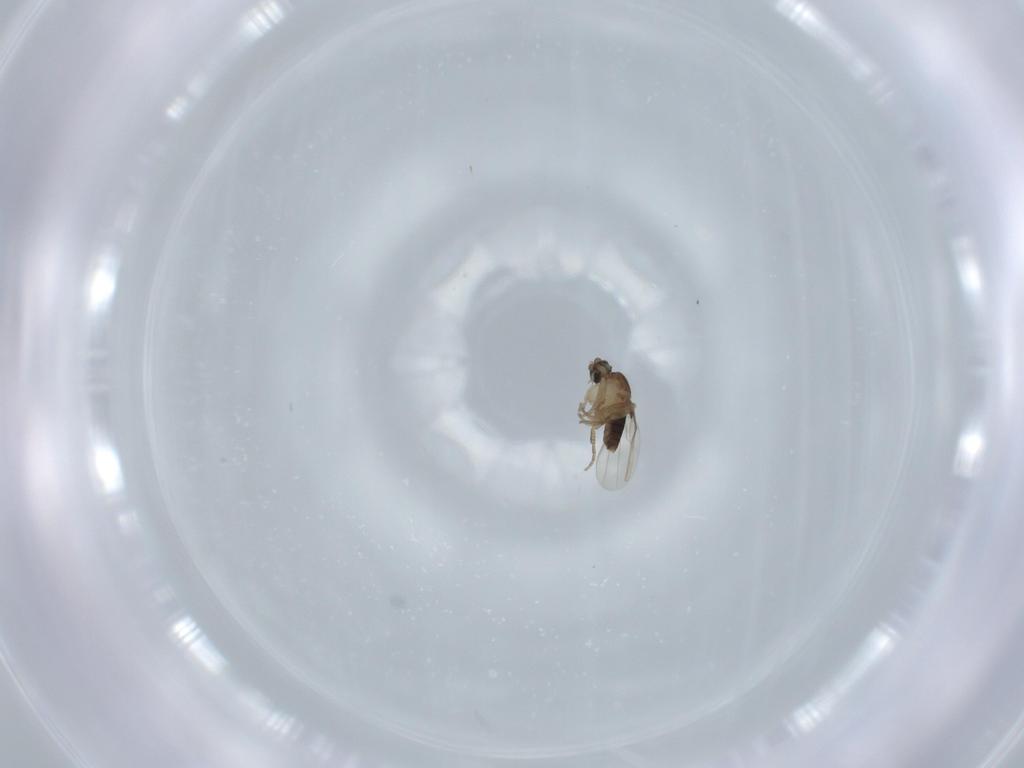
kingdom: Animalia
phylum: Arthropoda
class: Insecta
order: Diptera
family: Phoridae
